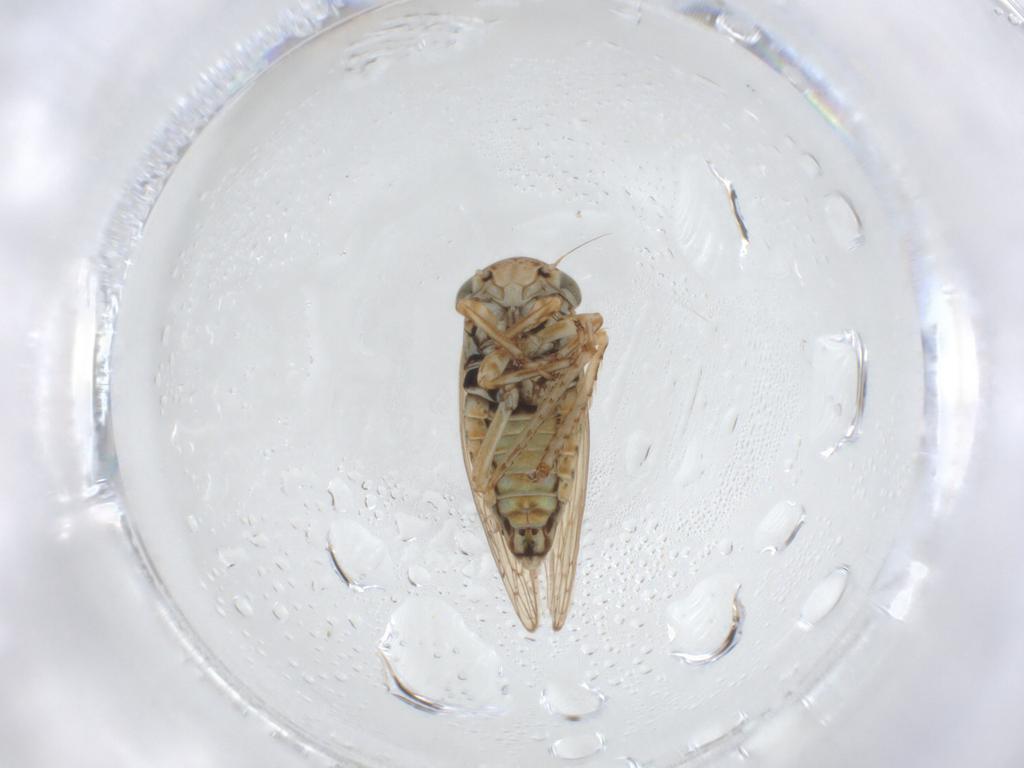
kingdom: Animalia
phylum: Arthropoda
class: Insecta
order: Hemiptera
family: Cicadellidae
